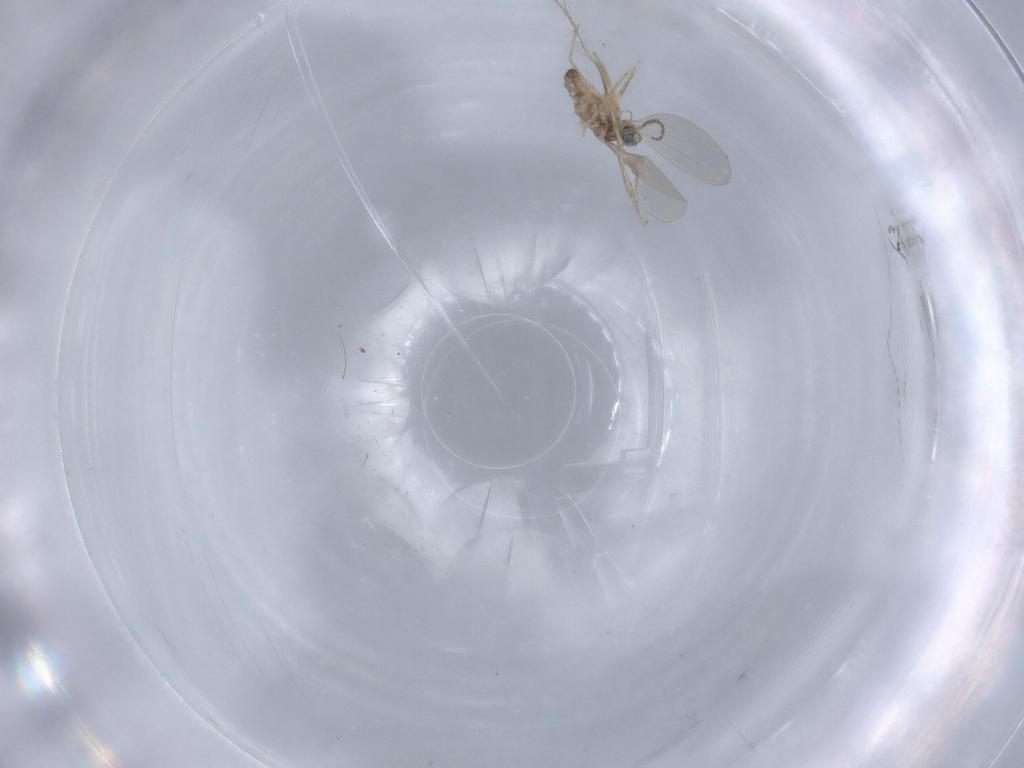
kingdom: Animalia
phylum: Arthropoda
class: Insecta
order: Diptera
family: Cecidomyiidae
